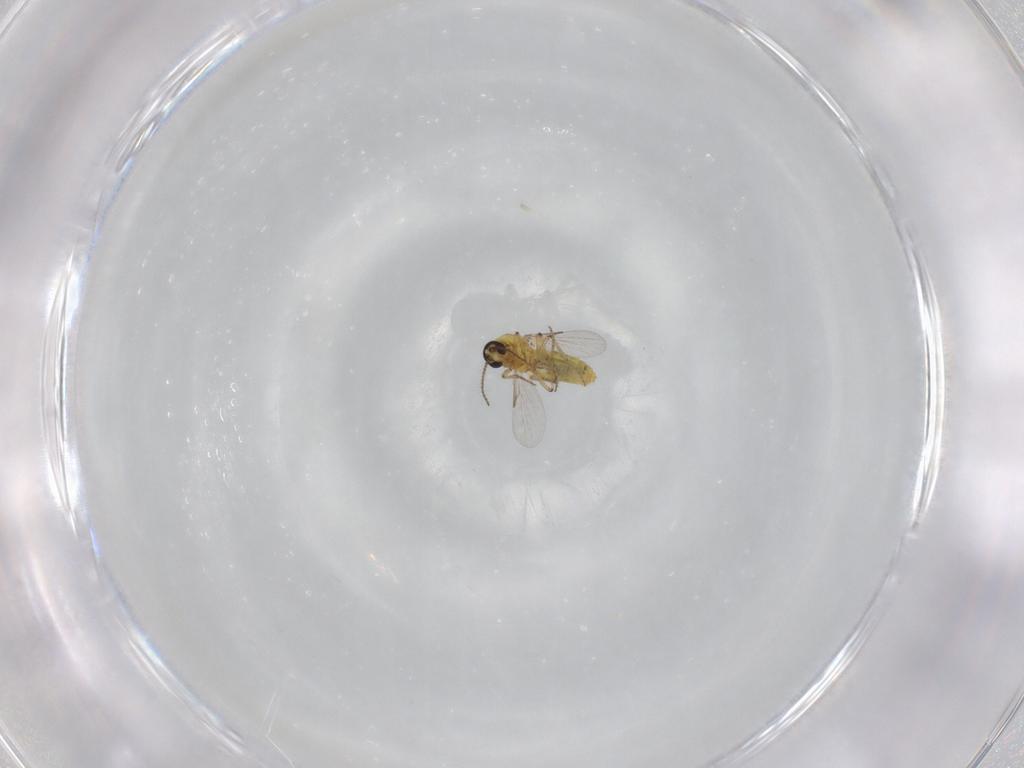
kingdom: Animalia
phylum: Arthropoda
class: Insecta
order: Diptera
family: Ceratopogonidae
